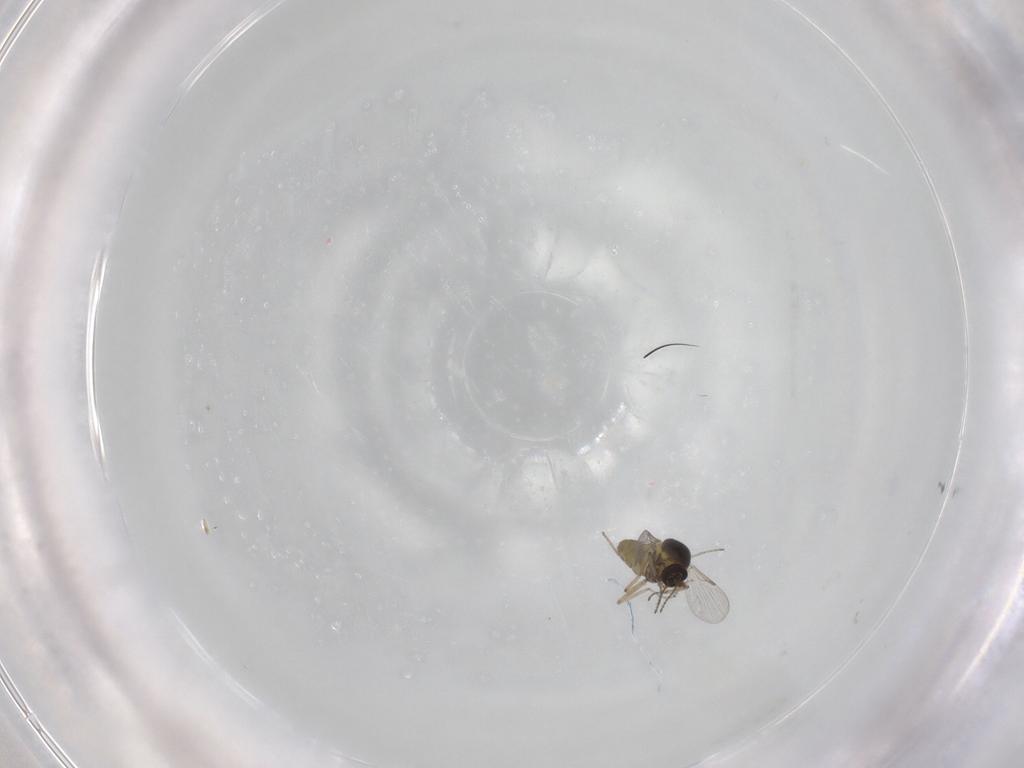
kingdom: Animalia
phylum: Arthropoda
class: Insecta
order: Diptera
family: Ceratopogonidae
